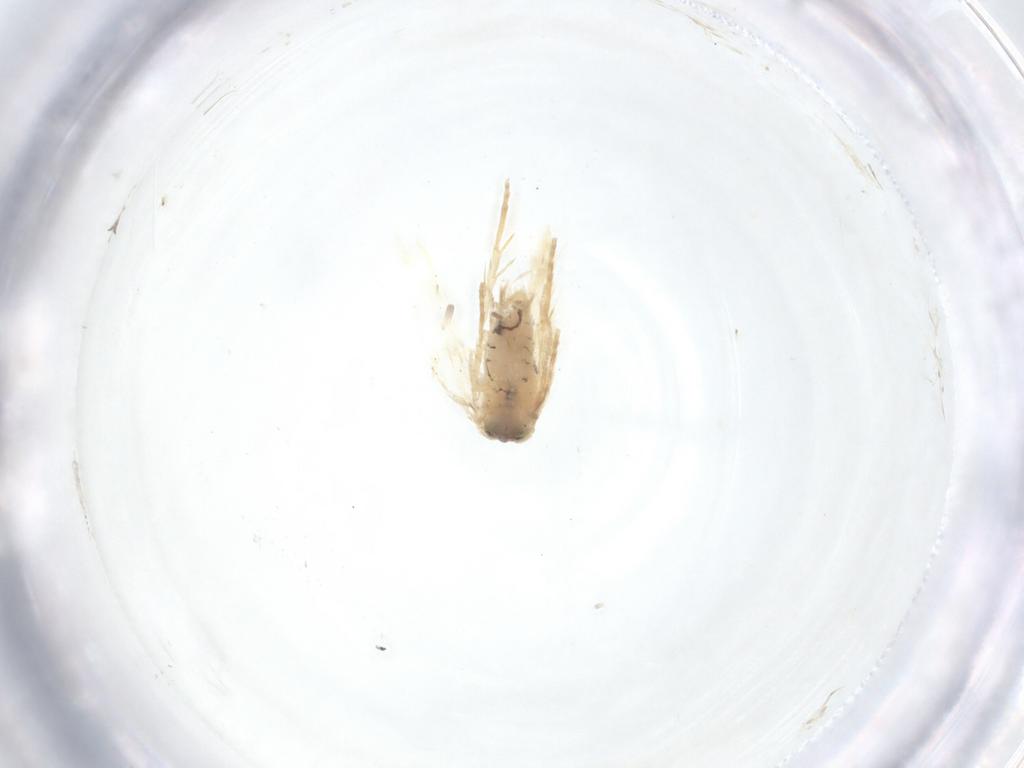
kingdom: Animalia
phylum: Arthropoda
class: Insecta
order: Lepidoptera
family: Nepticulidae
